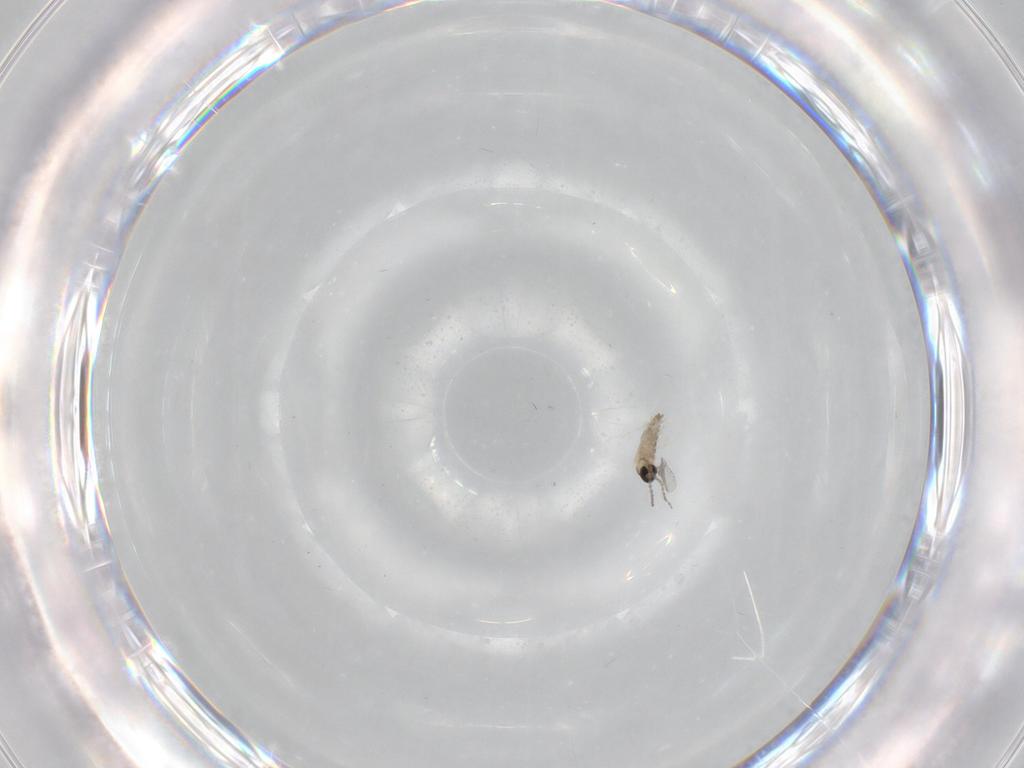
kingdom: Animalia
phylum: Arthropoda
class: Insecta
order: Diptera
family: Cecidomyiidae
